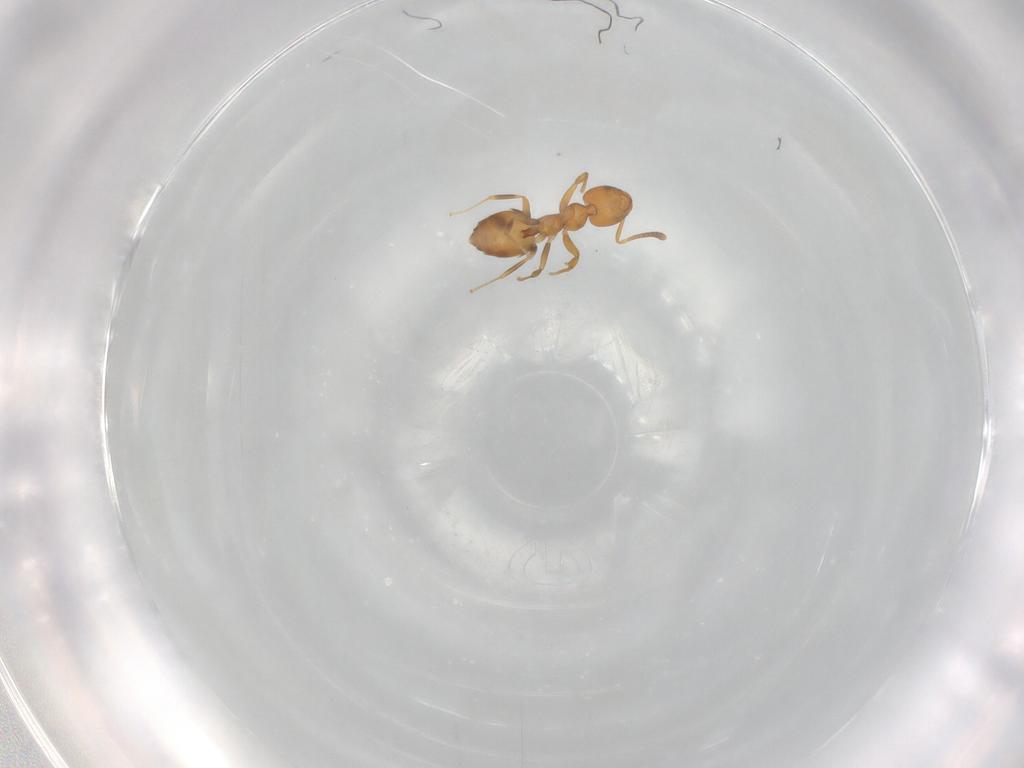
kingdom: Animalia
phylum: Arthropoda
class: Insecta
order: Hymenoptera
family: Formicidae
